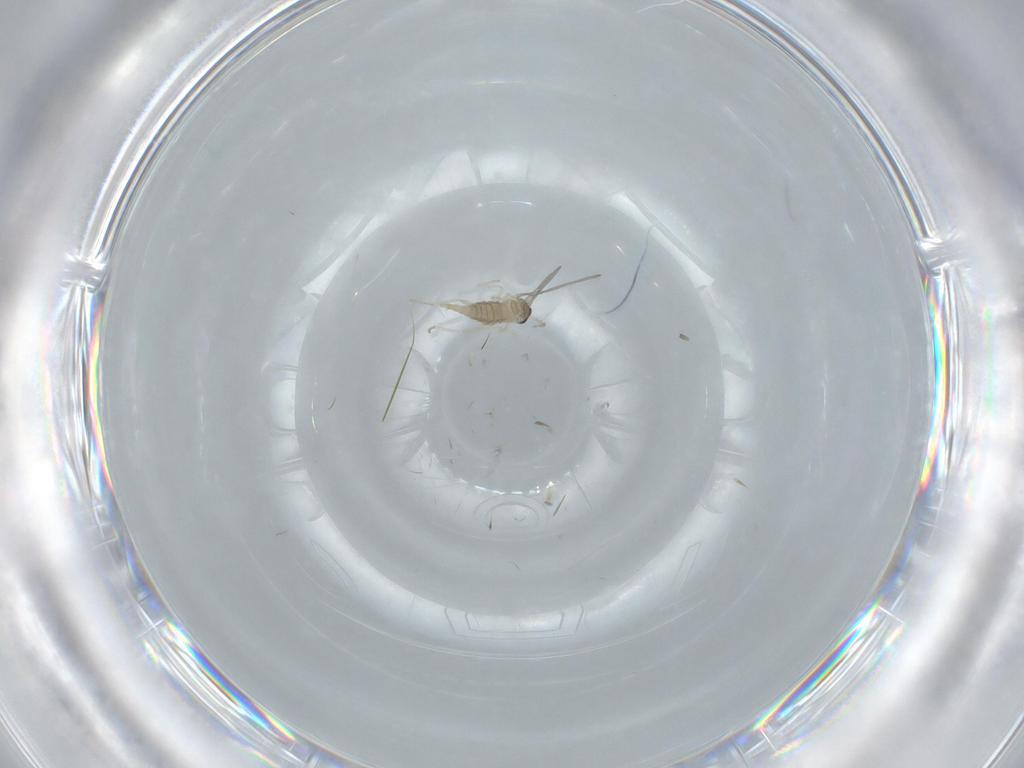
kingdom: Animalia
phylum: Arthropoda
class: Insecta
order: Diptera
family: Cecidomyiidae
